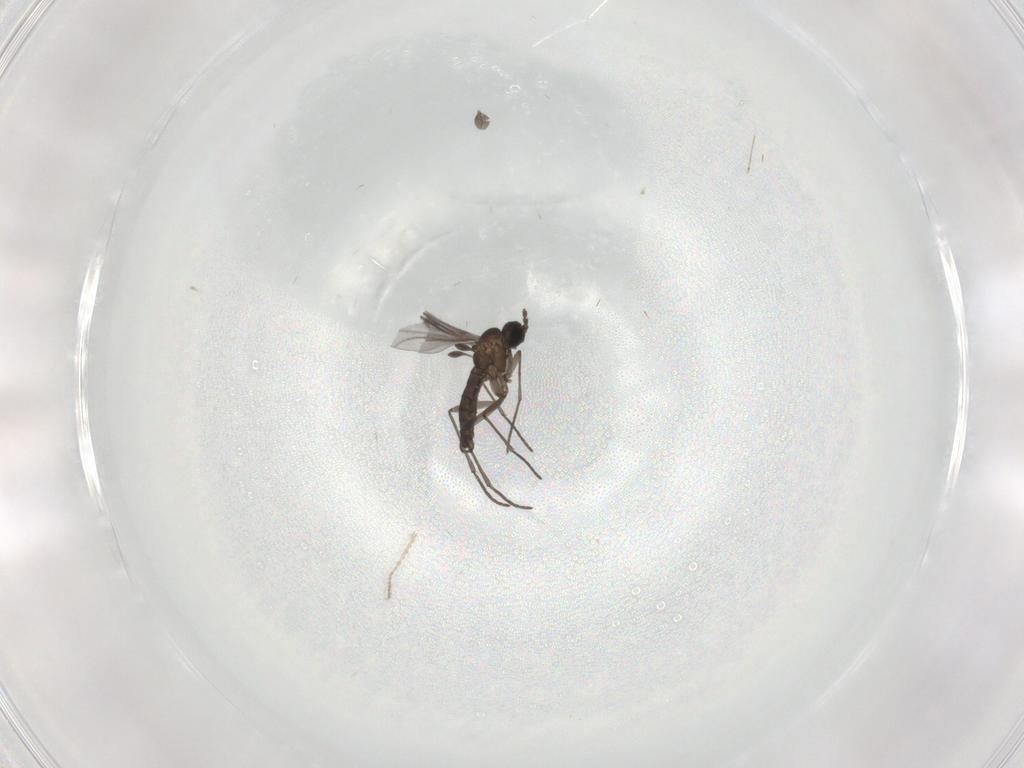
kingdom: Animalia
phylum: Arthropoda
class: Insecta
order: Diptera
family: Sciaridae
